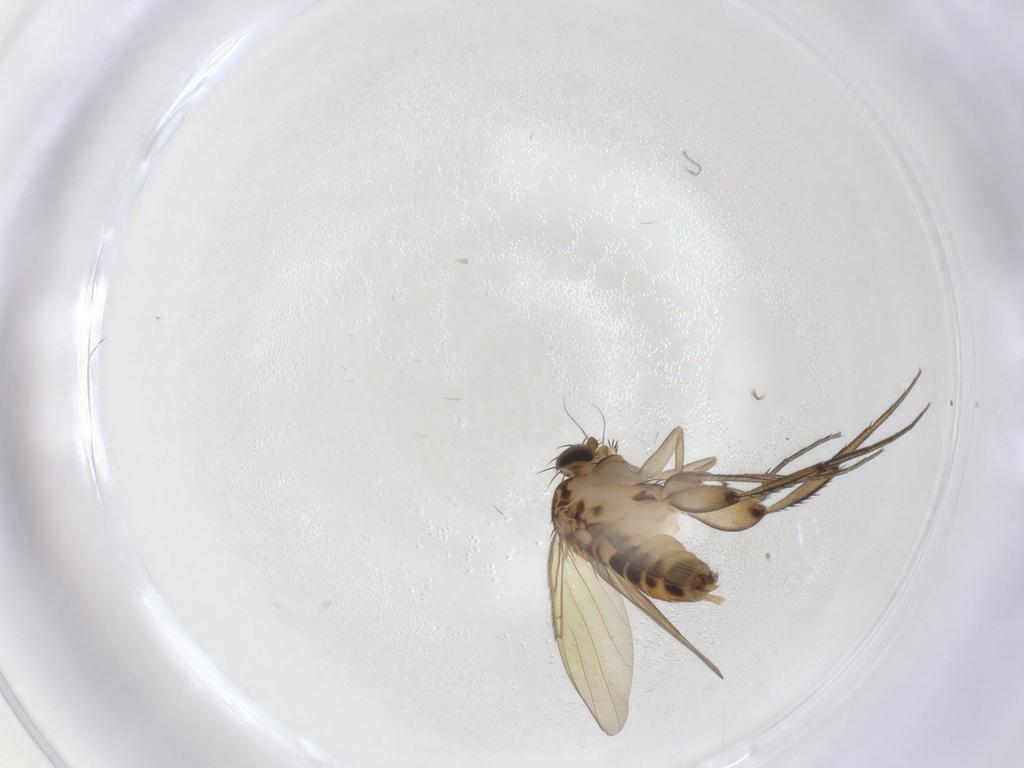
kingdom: Animalia
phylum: Arthropoda
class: Insecta
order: Diptera
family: Phoridae
